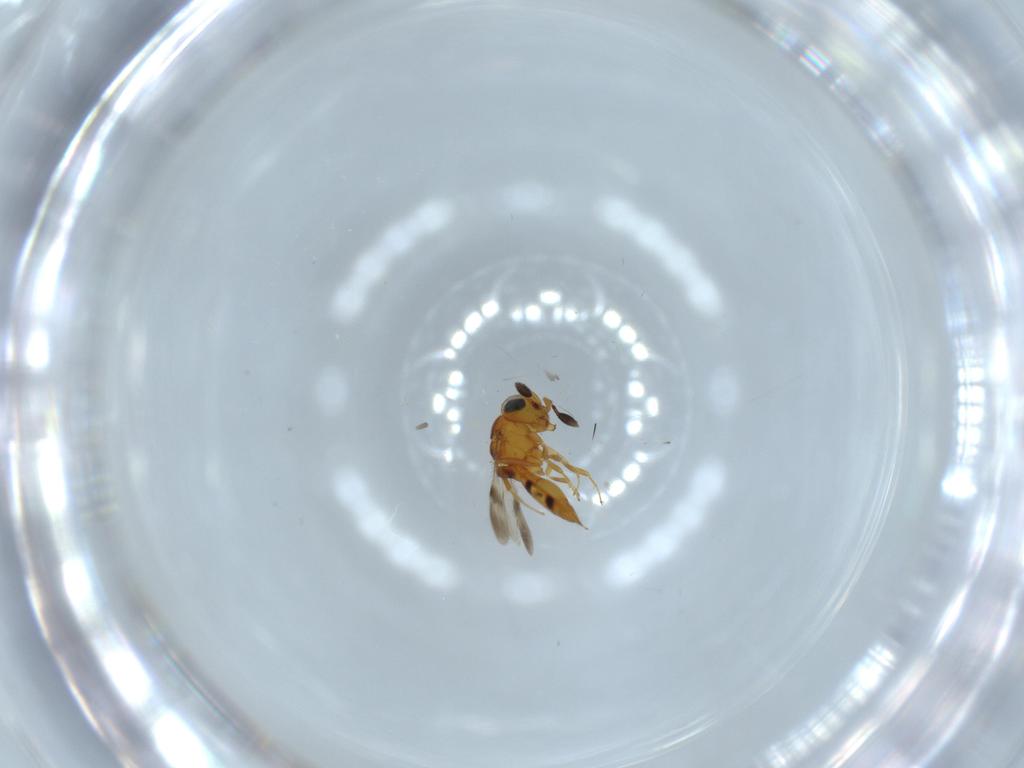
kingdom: Animalia
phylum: Arthropoda
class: Insecta
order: Hymenoptera
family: Scelionidae
